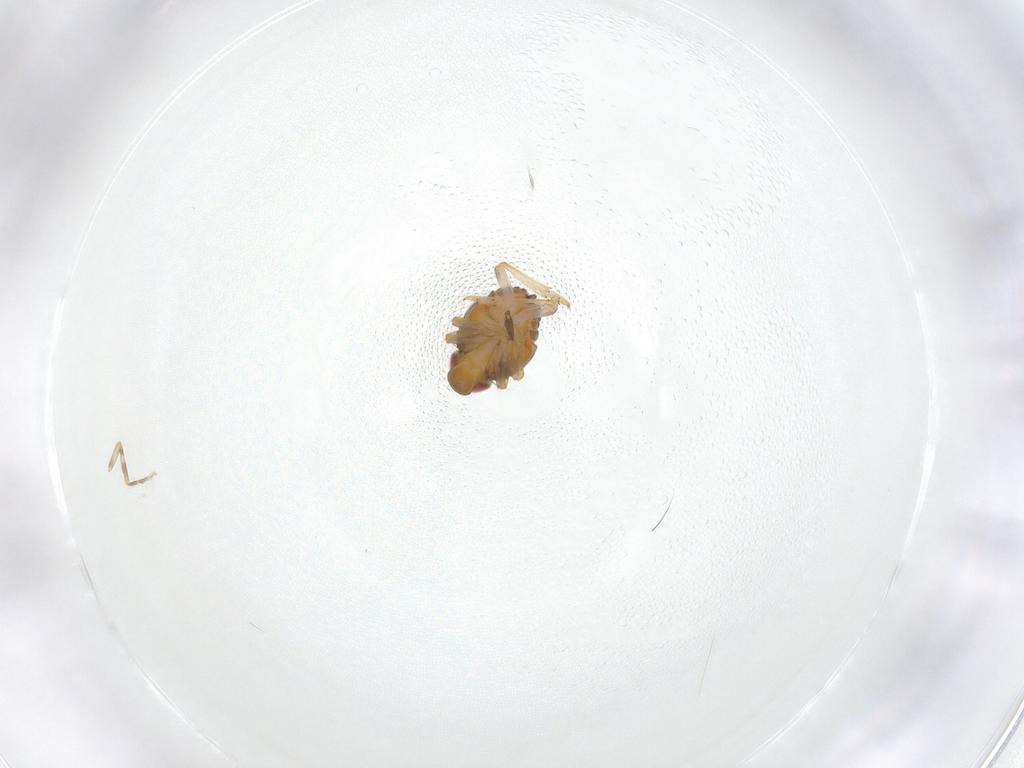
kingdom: Animalia
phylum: Arthropoda
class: Insecta
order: Hemiptera
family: Issidae
